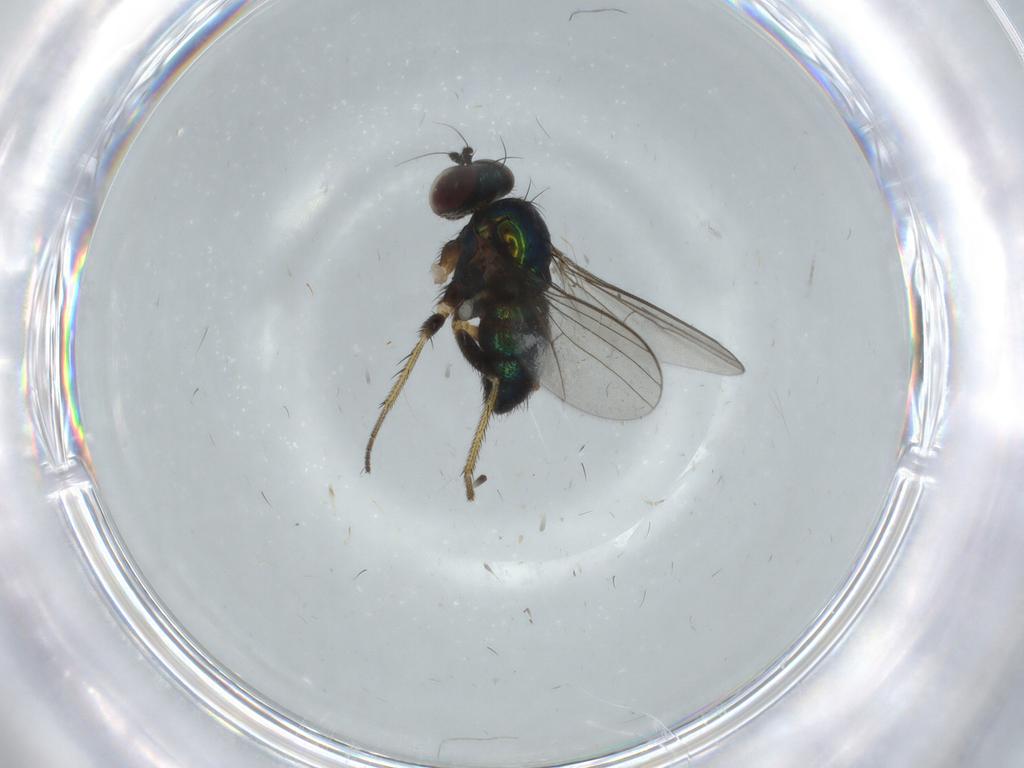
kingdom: Animalia
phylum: Arthropoda
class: Insecta
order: Diptera
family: Dolichopodidae
